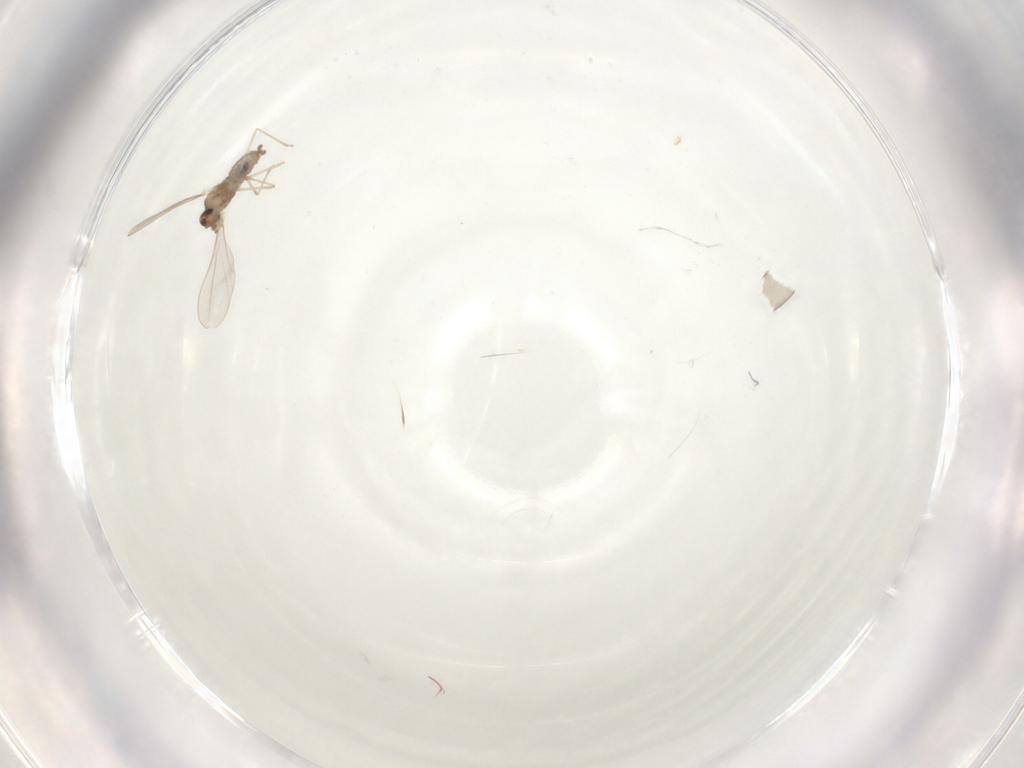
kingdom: Animalia
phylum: Arthropoda
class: Insecta
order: Diptera
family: Cecidomyiidae
